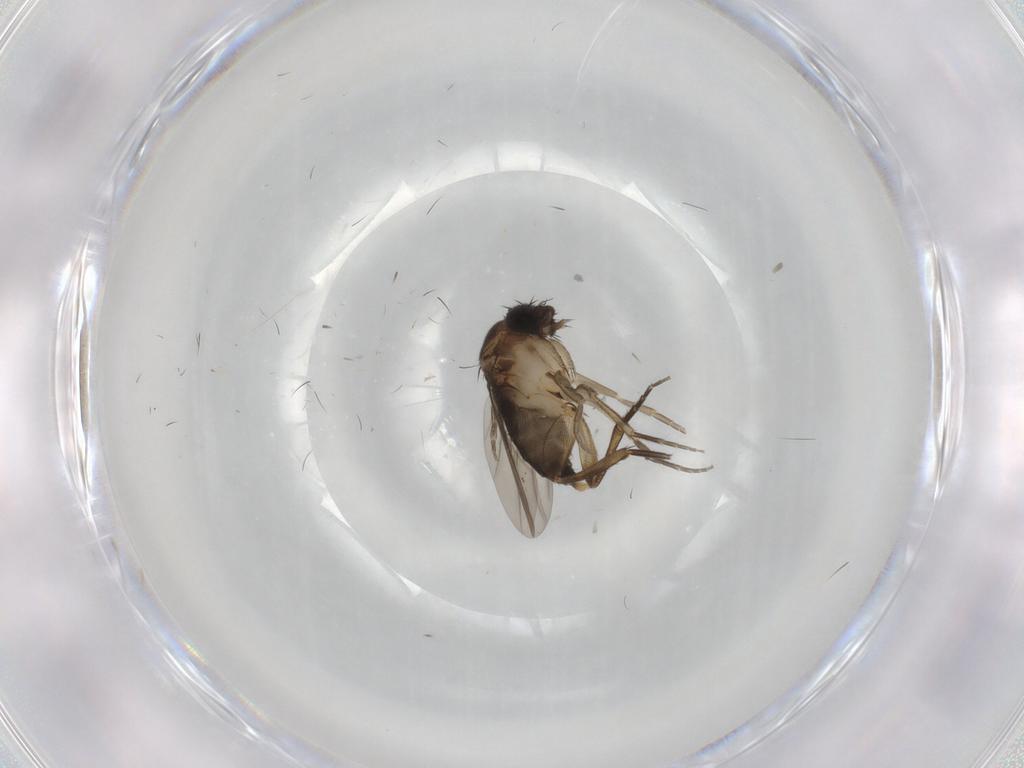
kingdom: Animalia
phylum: Arthropoda
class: Insecta
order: Diptera
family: Phoridae
